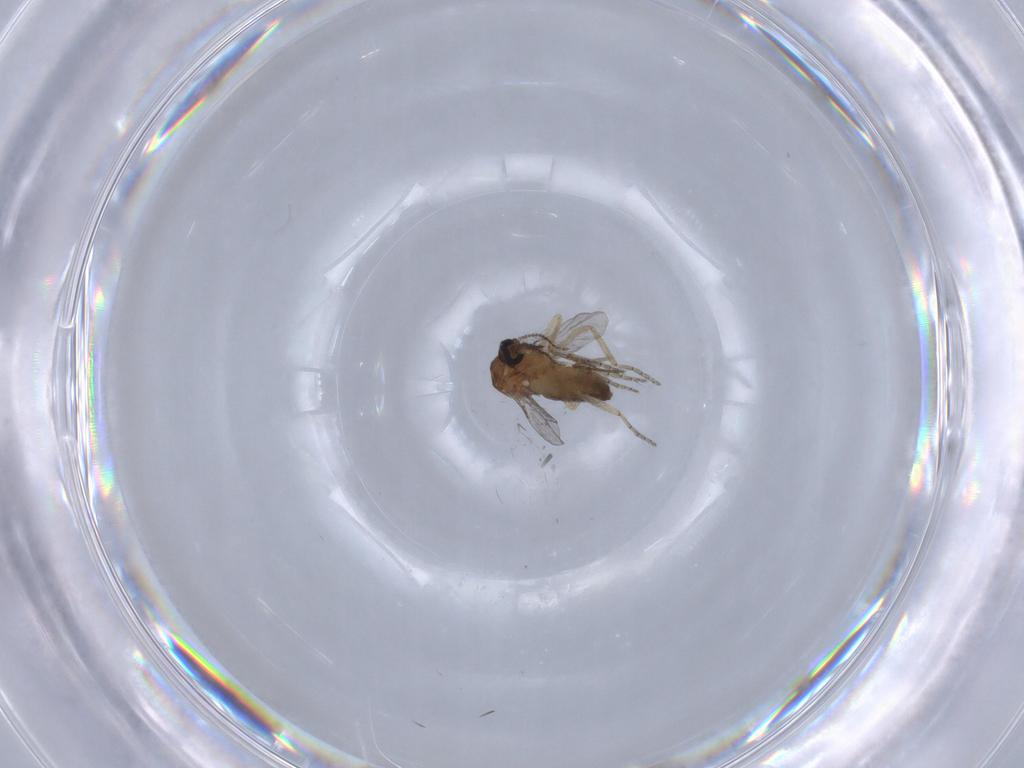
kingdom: Animalia
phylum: Arthropoda
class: Insecta
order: Diptera
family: Ceratopogonidae
